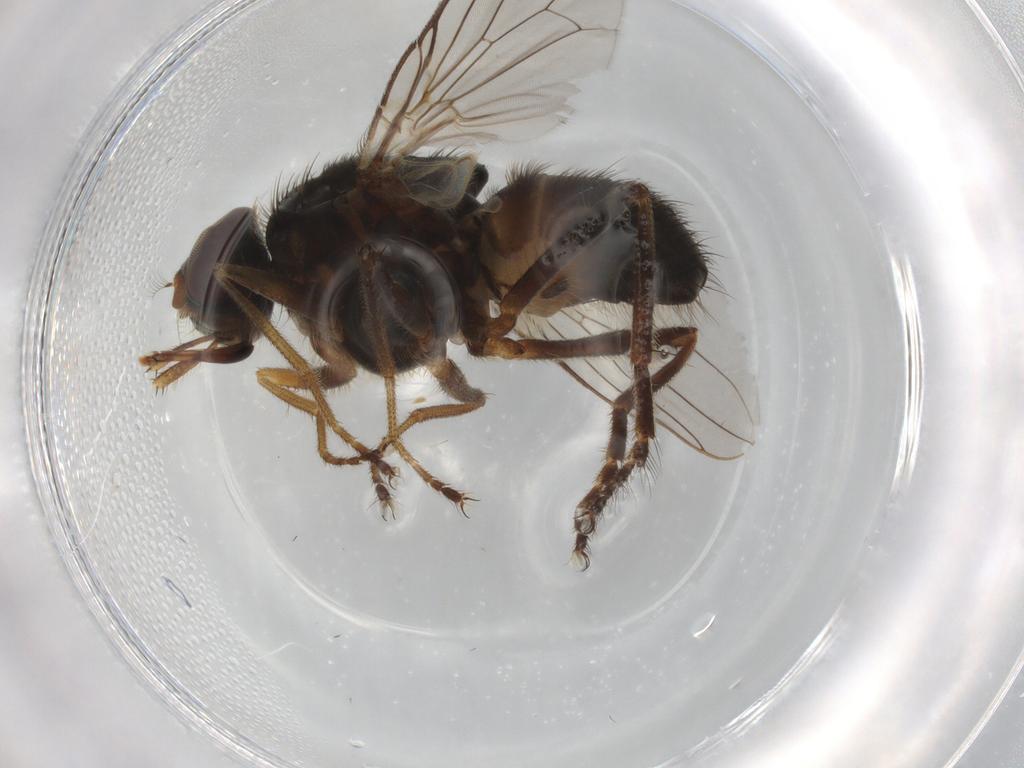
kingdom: Animalia
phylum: Arthropoda
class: Insecta
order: Diptera
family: Muscidae
